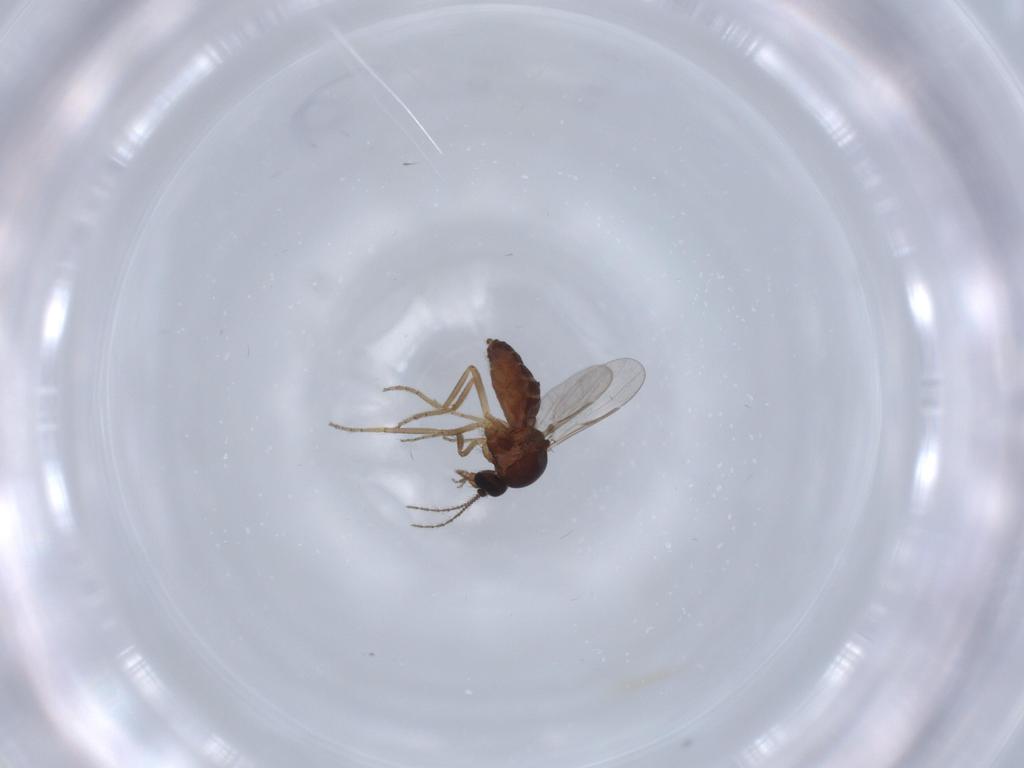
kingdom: Animalia
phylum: Arthropoda
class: Insecta
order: Diptera
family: Ceratopogonidae
